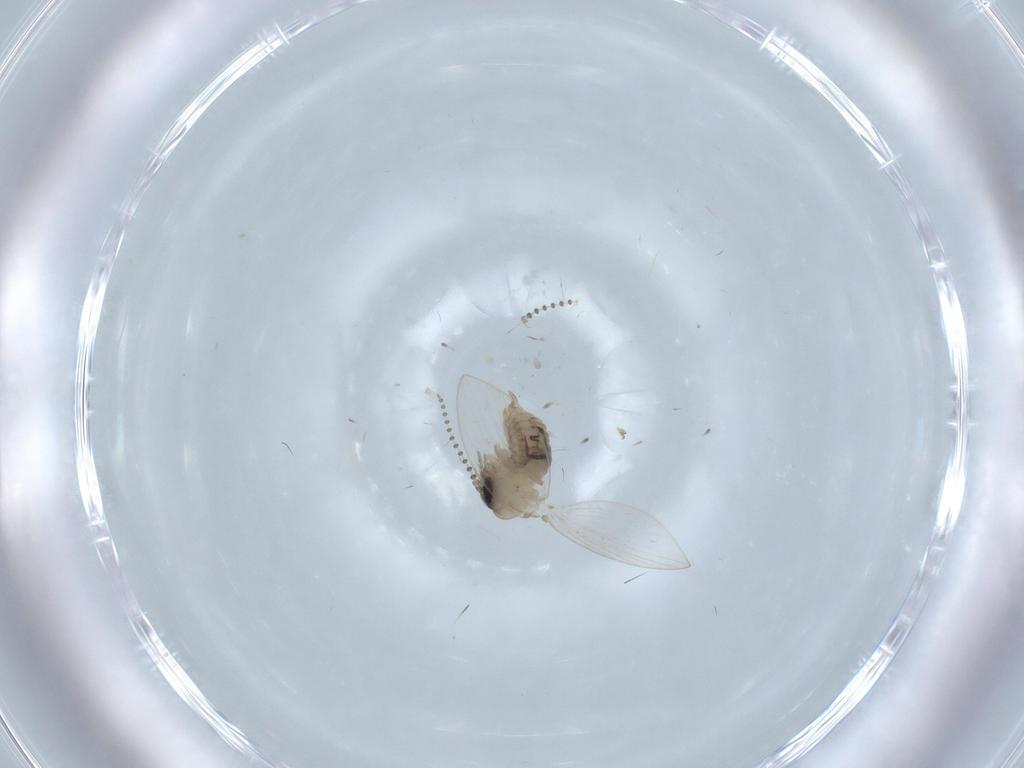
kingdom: Animalia
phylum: Arthropoda
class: Insecta
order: Diptera
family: Psychodidae
